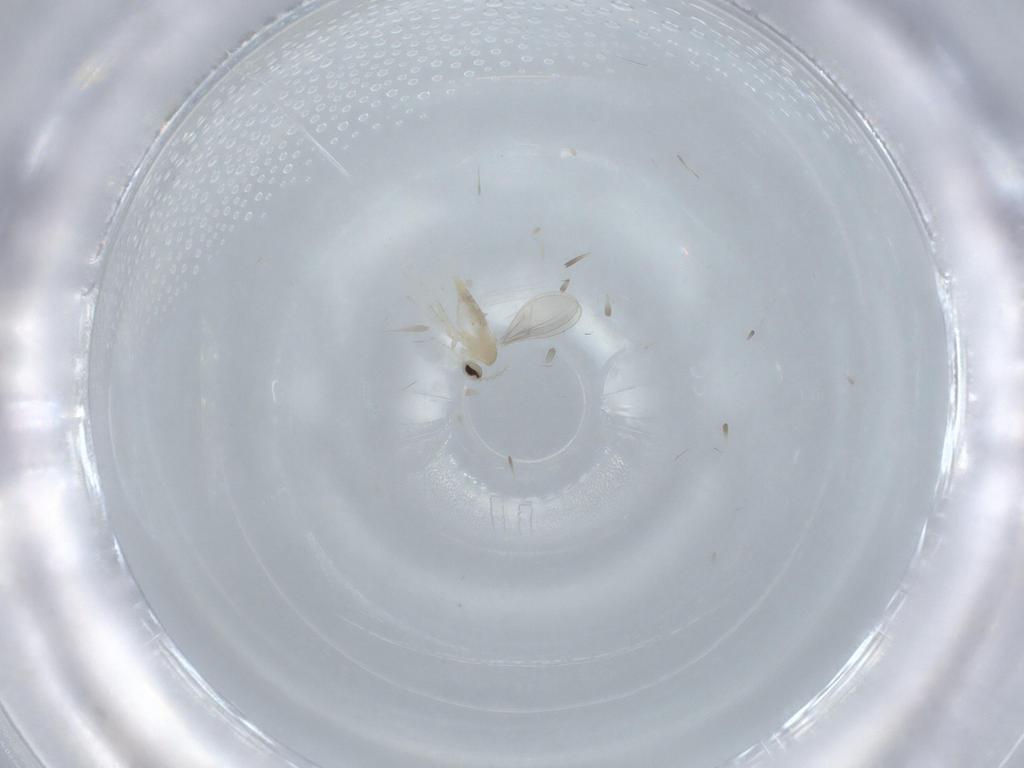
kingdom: Animalia
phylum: Arthropoda
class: Insecta
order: Diptera
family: Cecidomyiidae
